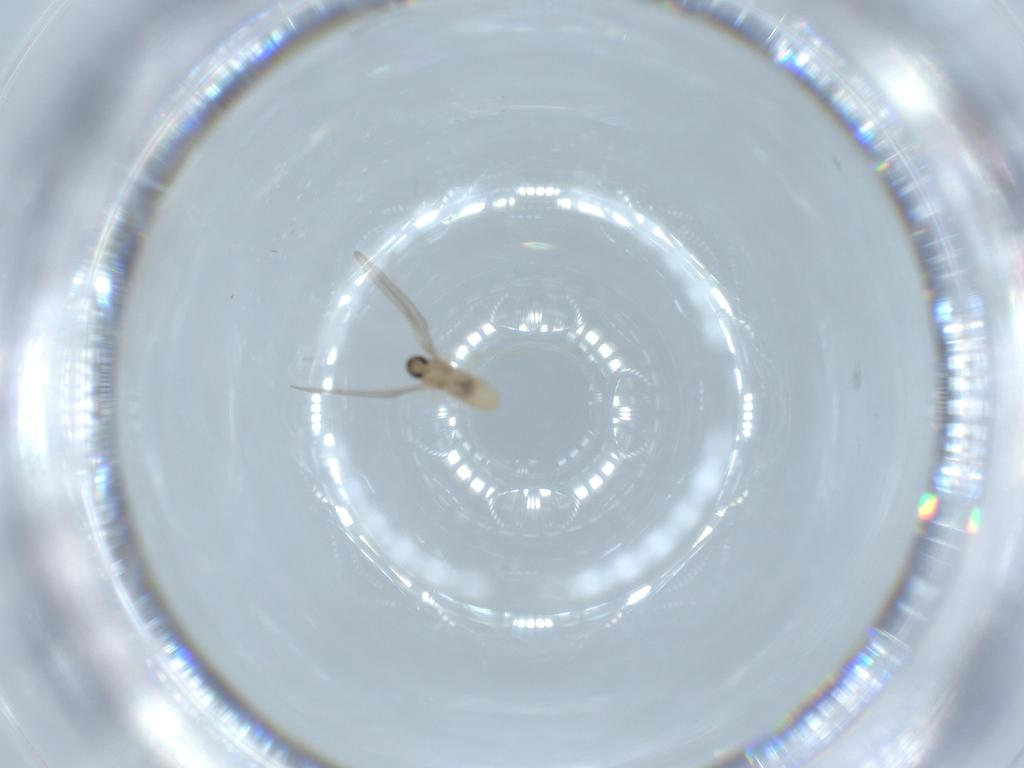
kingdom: Animalia
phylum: Arthropoda
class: Insecta
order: Diptera
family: Cecidomyiidae
